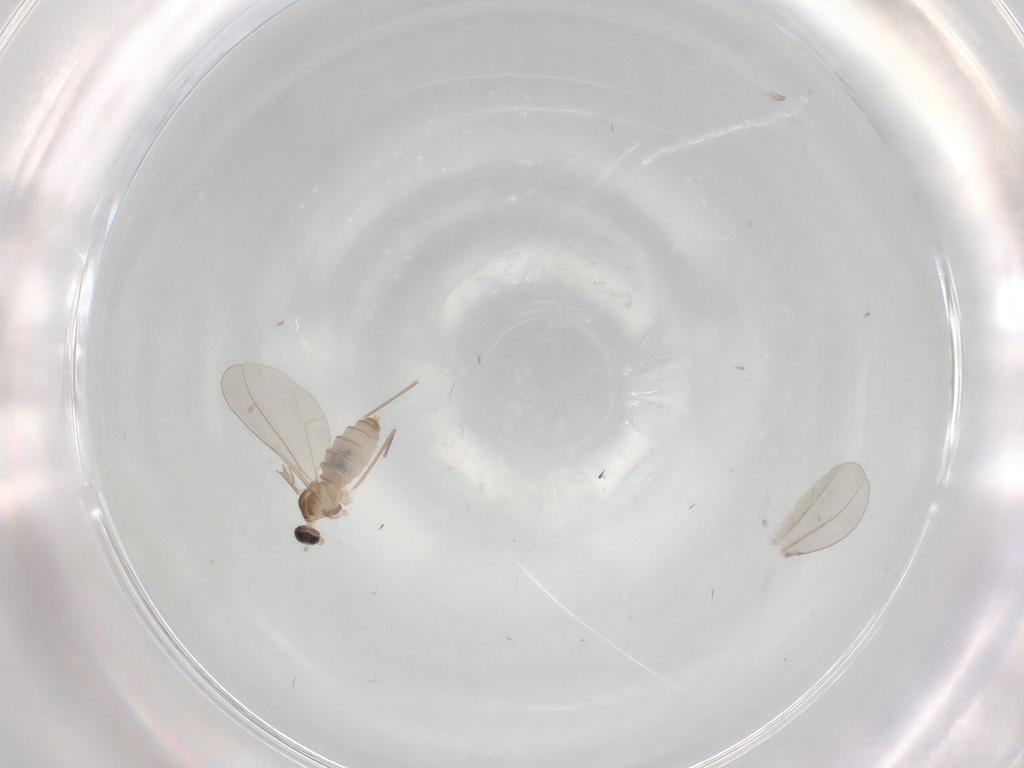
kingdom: Animalia
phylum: Arthropoda
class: Insecta
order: Diptera
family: Cecidomyiidae
